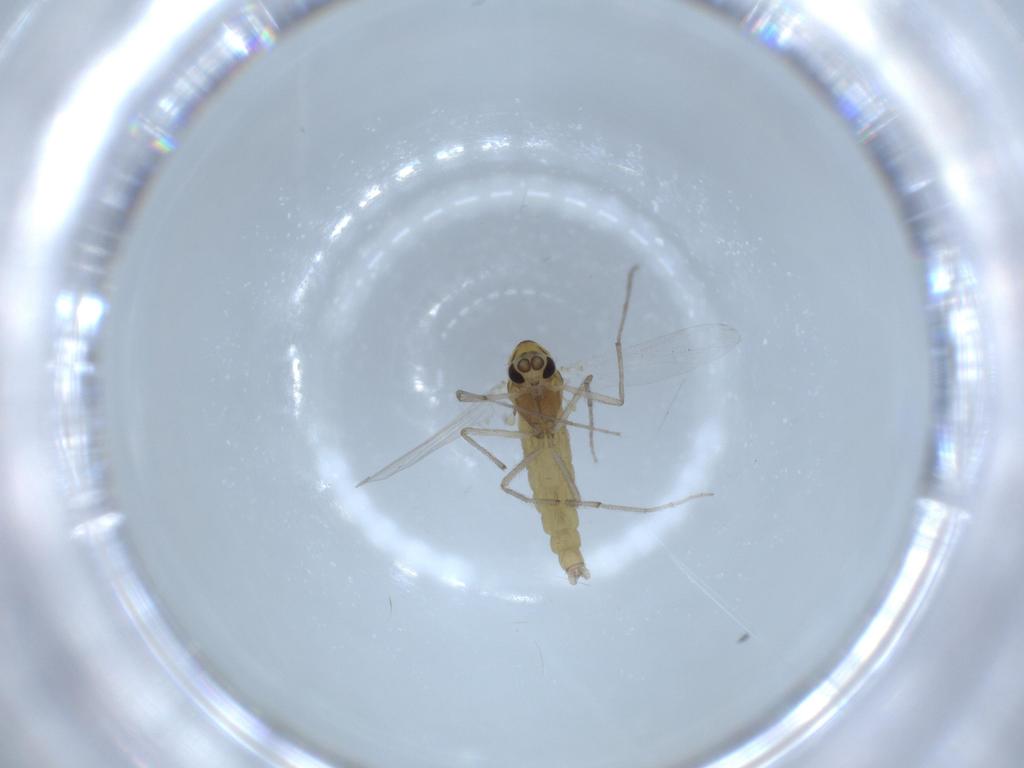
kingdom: Animalia
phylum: Arthropoda
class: Insecta
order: Diptera
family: Chironomidae
